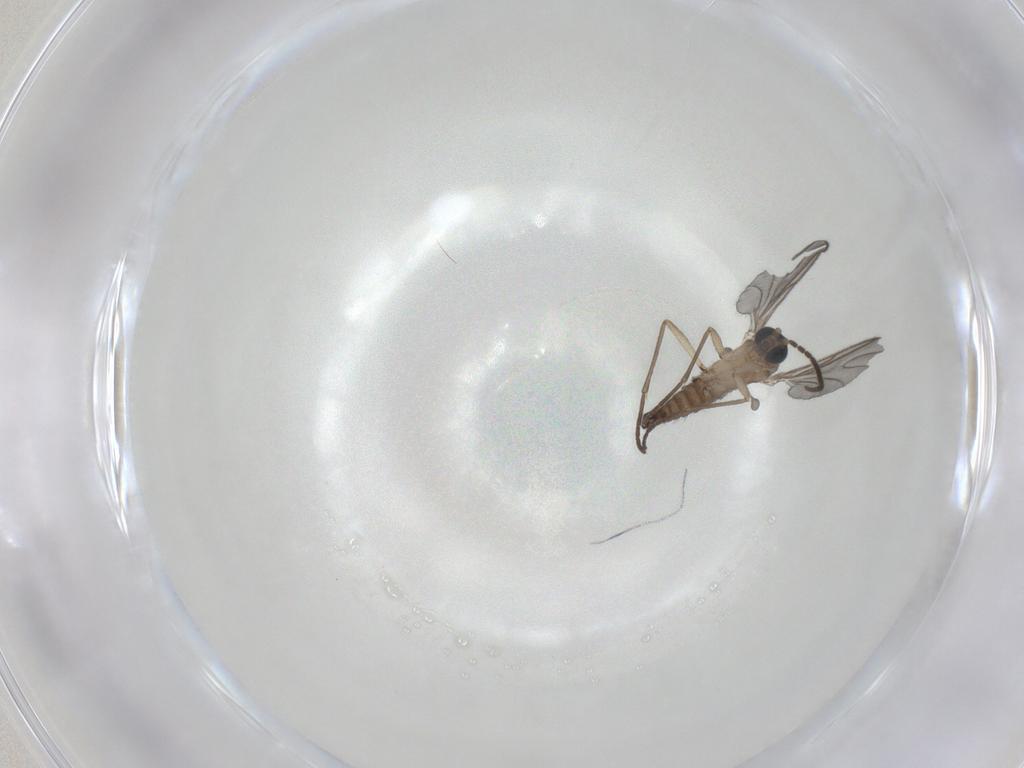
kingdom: Animalia
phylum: Arthropoda
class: Insecta
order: Diptera
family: Sciaridae
